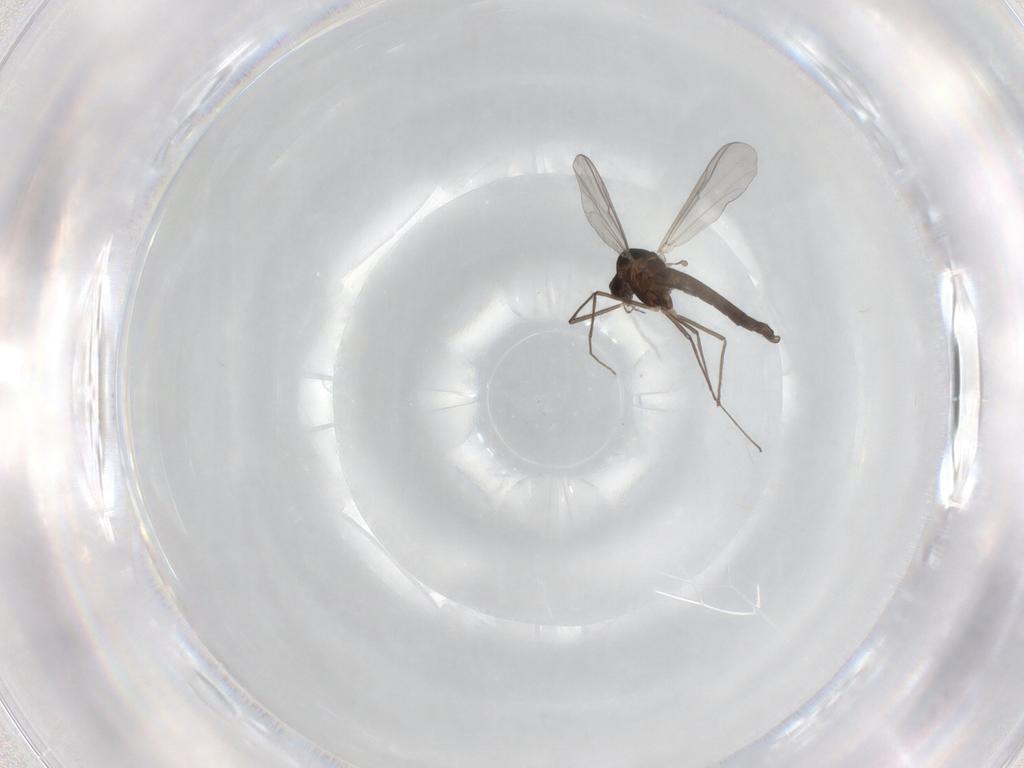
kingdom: Animalia
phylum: Arthropoda
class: Insecta
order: Diptera
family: Chironomidae
